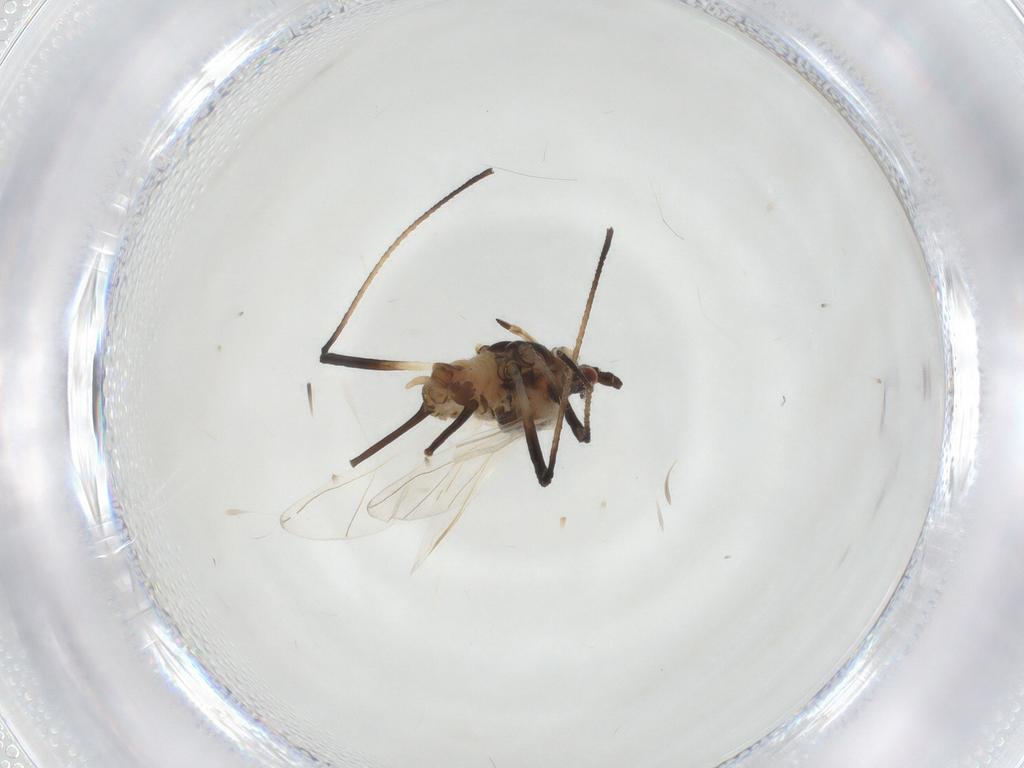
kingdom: Animalia
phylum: Arthropoda
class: Insecta
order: Hemiptera
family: Aphididae
